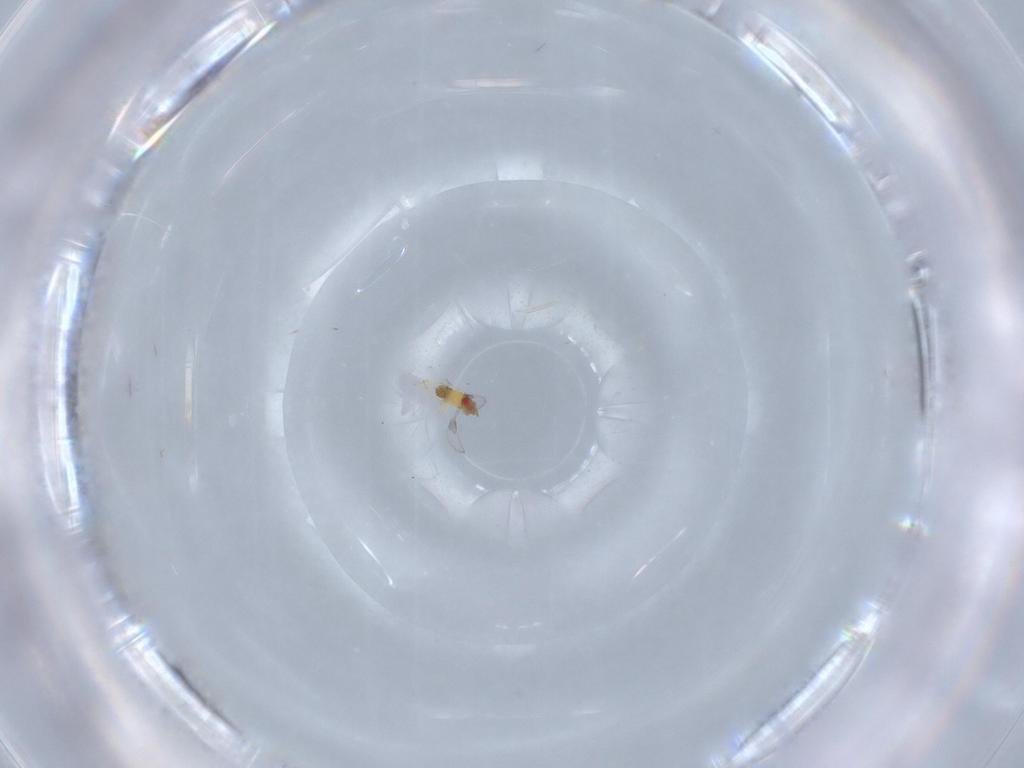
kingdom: Animalia
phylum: Arthropoda
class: Insecta
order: Hymenoptera
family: Trichogrammatidae
